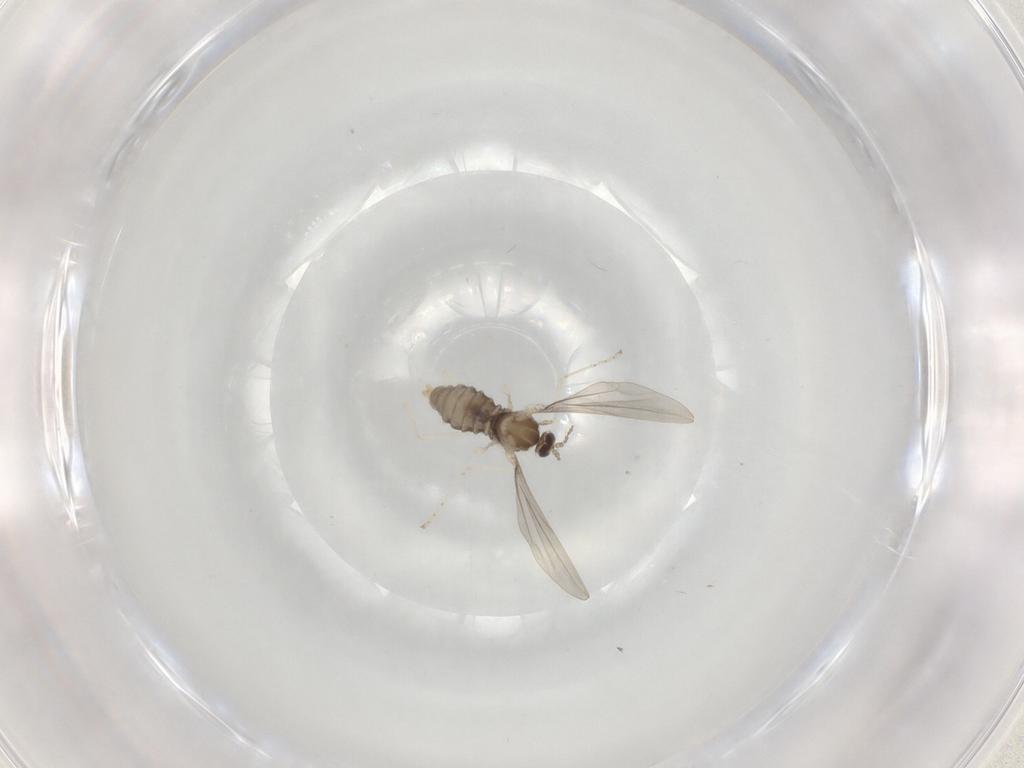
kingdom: Animalia
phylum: Arthropoda
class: Insecta
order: Diptera
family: Cecidomyiidae
